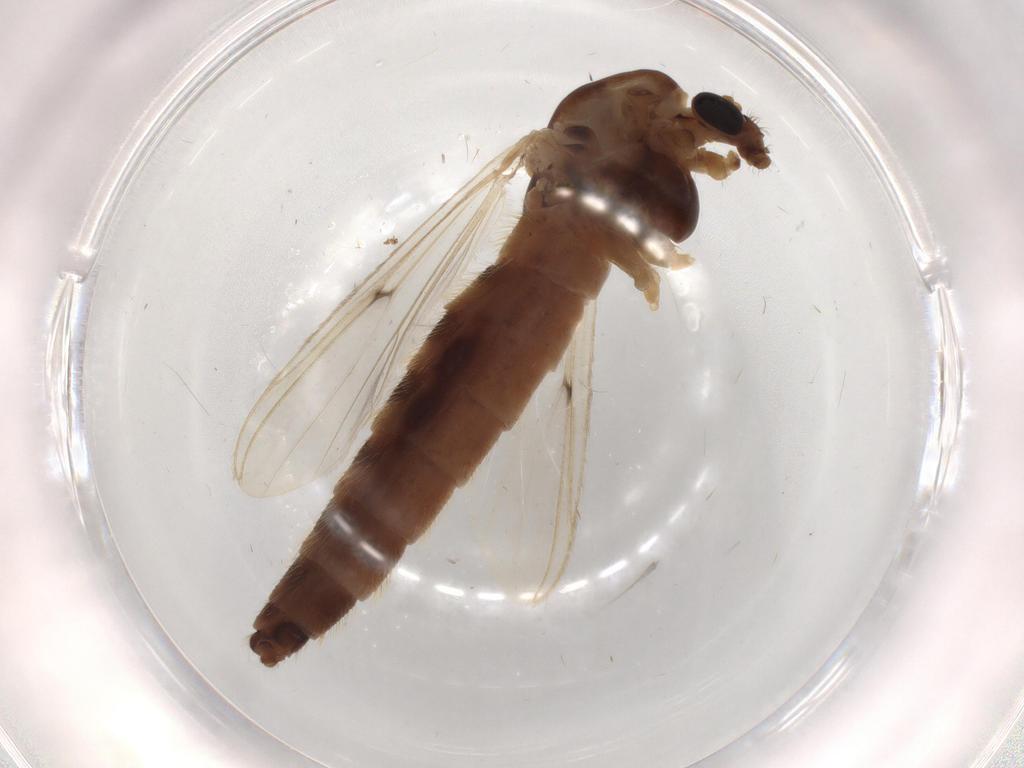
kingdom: Animalia
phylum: Arthropoda
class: Insecta
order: Diptera
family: Chironomidae
